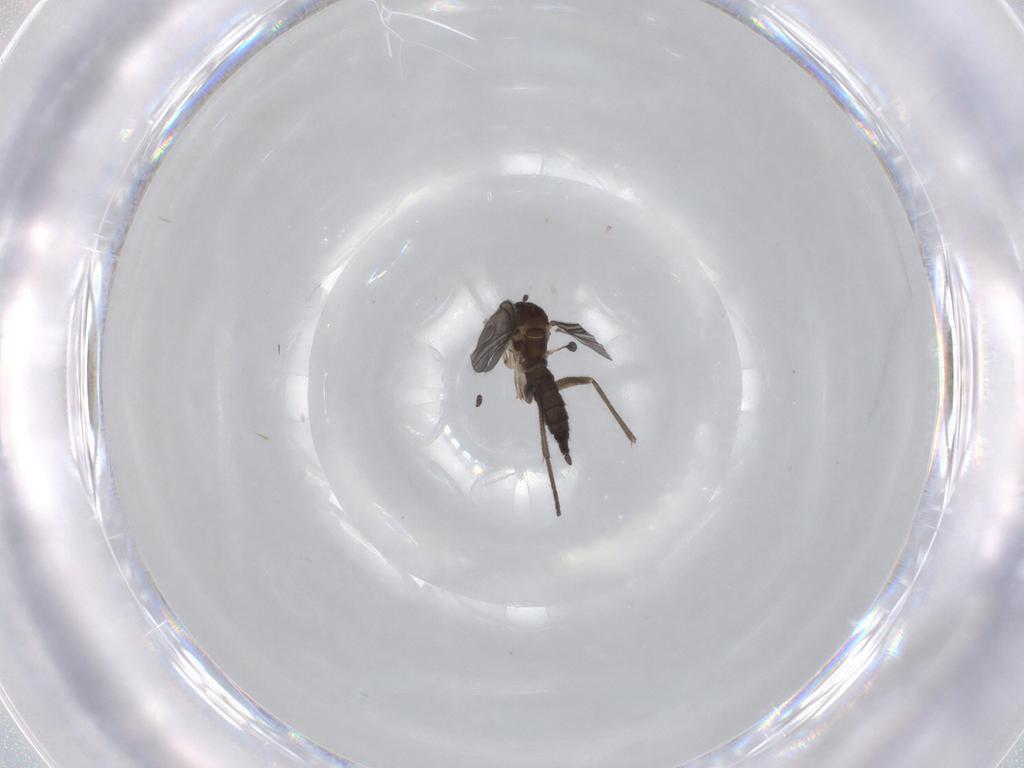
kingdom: Animalia
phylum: Arthropoda
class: Insecta
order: Diptera
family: Sciaridae
